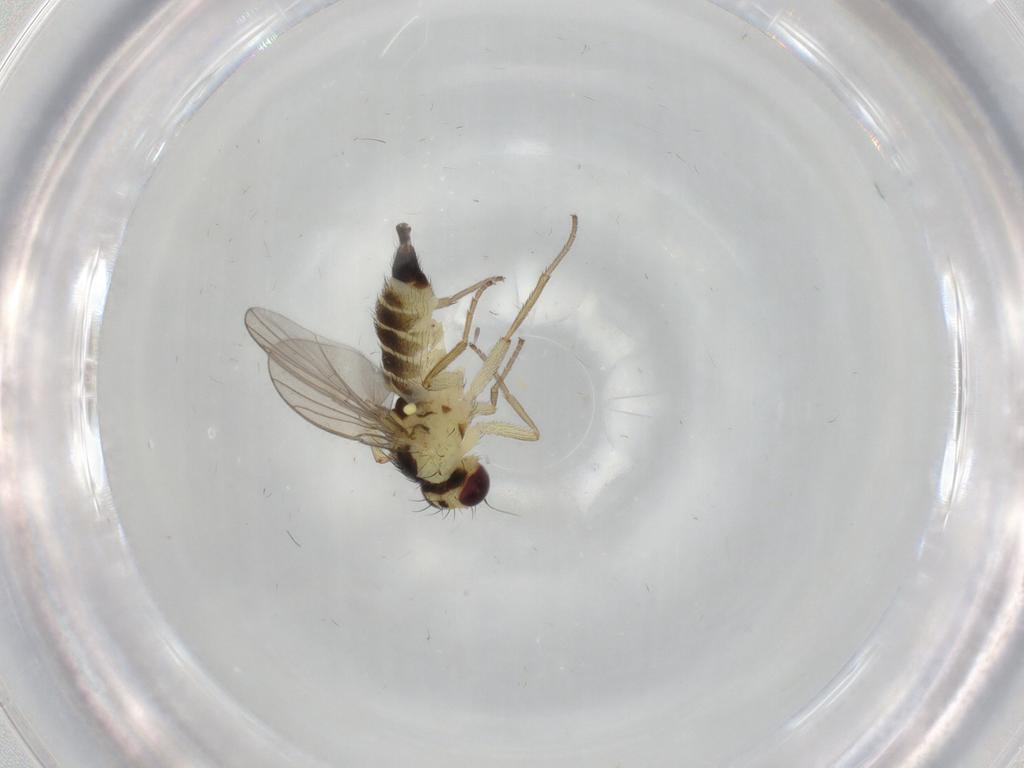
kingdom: Animalia
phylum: Arthropoda
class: Insecta
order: Diptera
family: Agromyzidae
